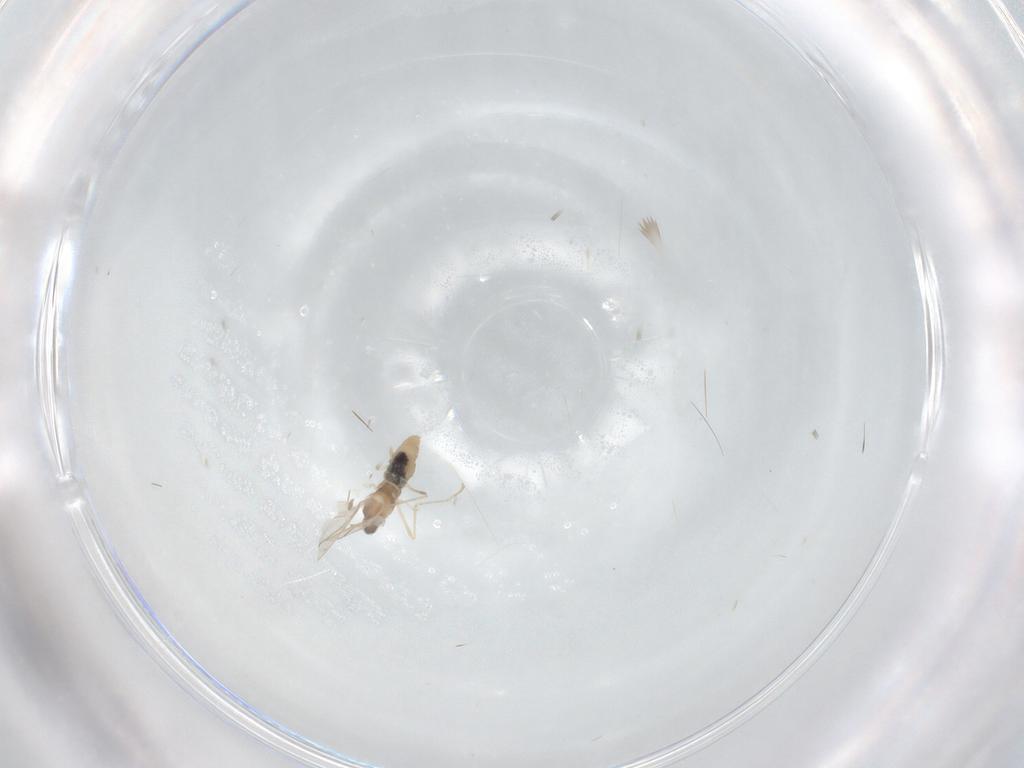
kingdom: Animalia
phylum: Arthropoda
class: Insecta
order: Diptera
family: Cecidomyiidae
